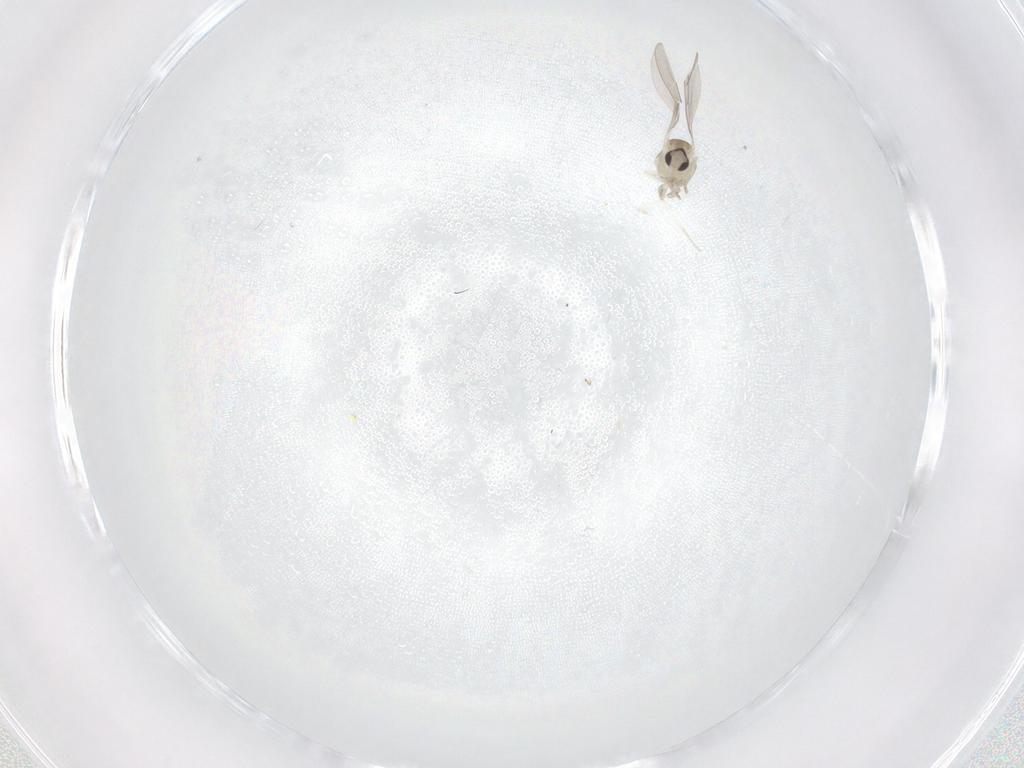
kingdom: Animalia
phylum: Arthropoda
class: Insecta
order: Diptera
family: Cecidomyiidae
